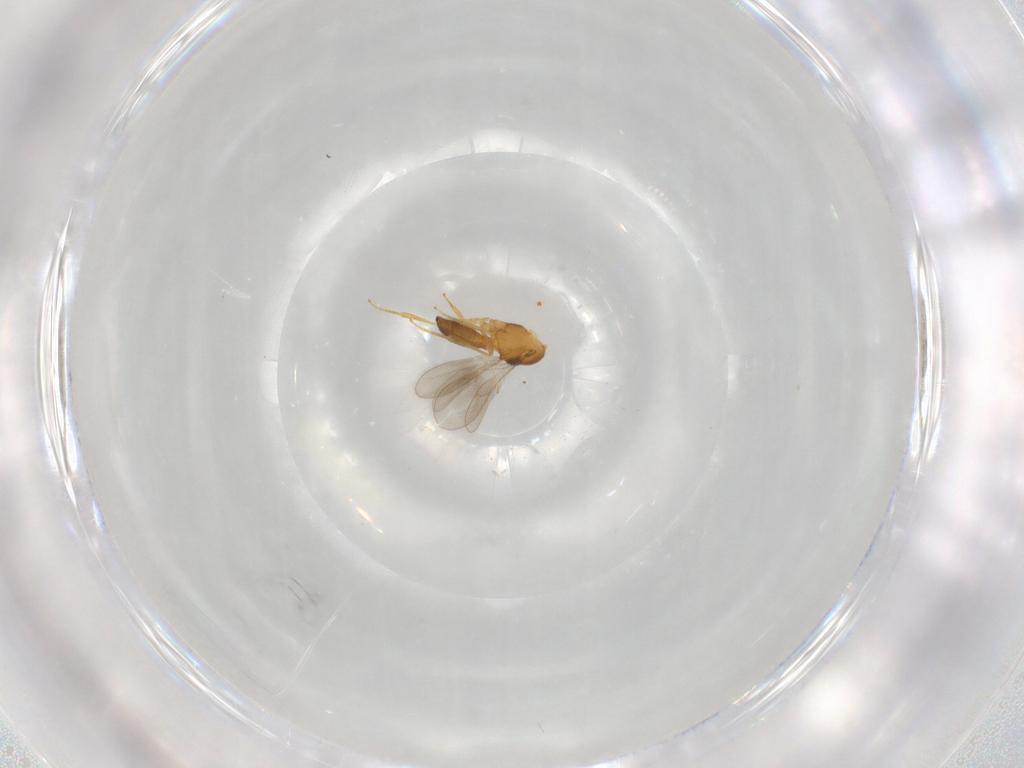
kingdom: Animalia
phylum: Arthropoda
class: Insecta
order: Hymenoptera
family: Scelionidae
